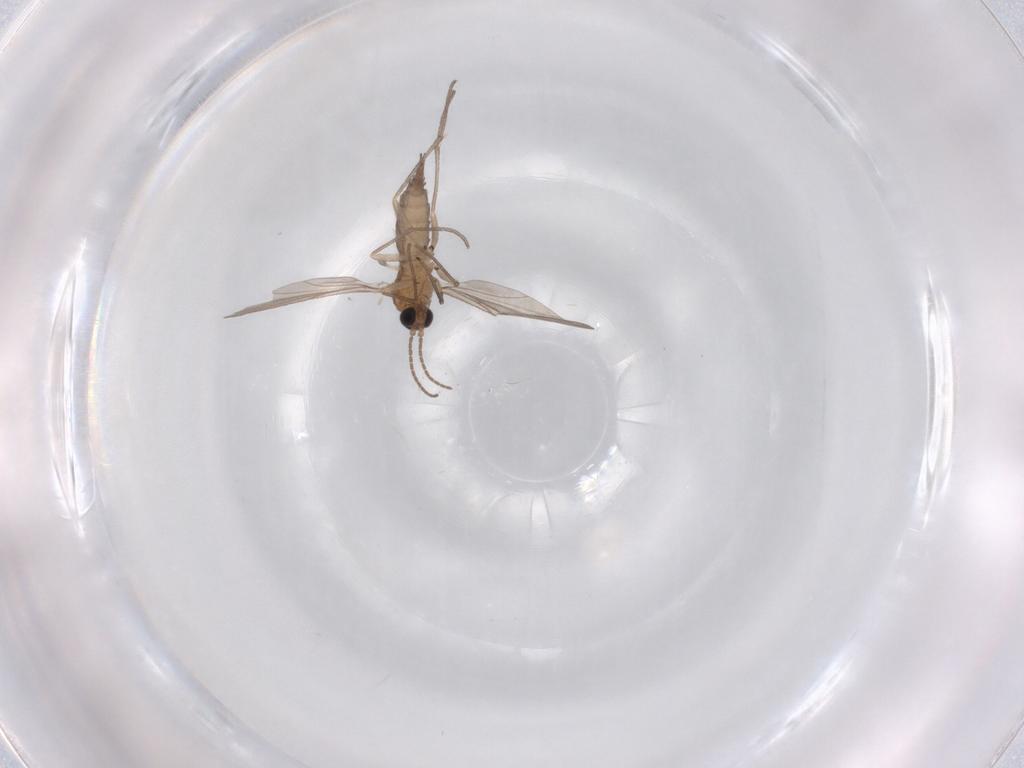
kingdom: Animalia
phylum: Arthropoda
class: Insecta
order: Diptera
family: Sciaridae
